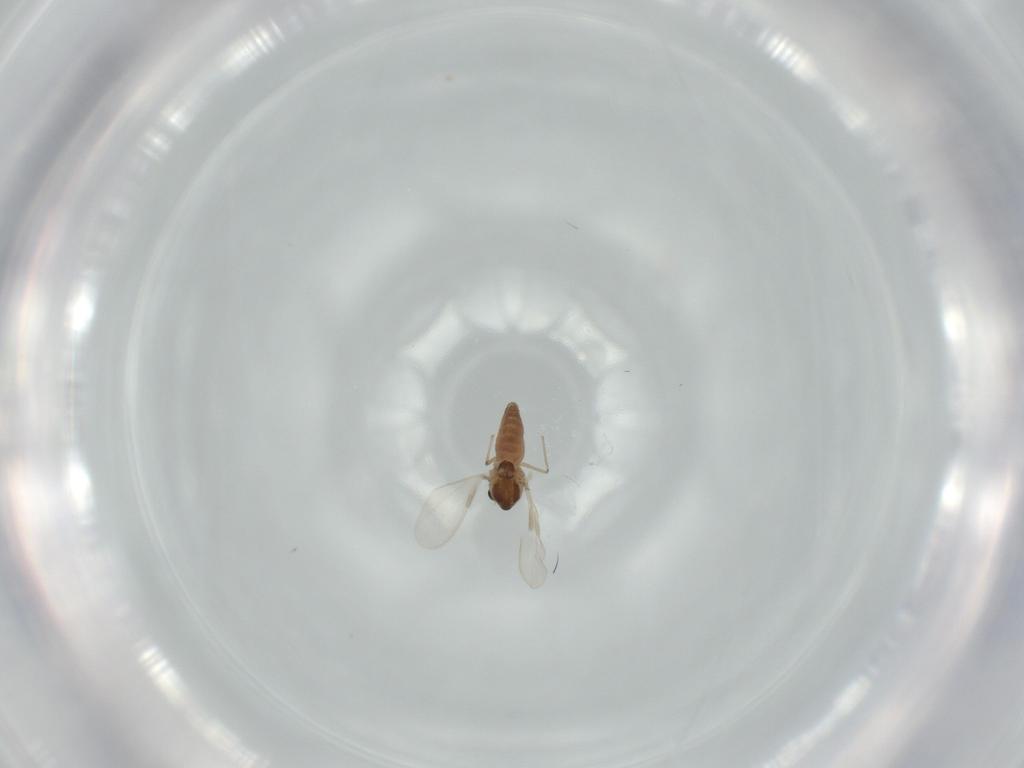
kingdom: Animalia
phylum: Arthropoda
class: Insecta
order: Diptera
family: Chironomidae
